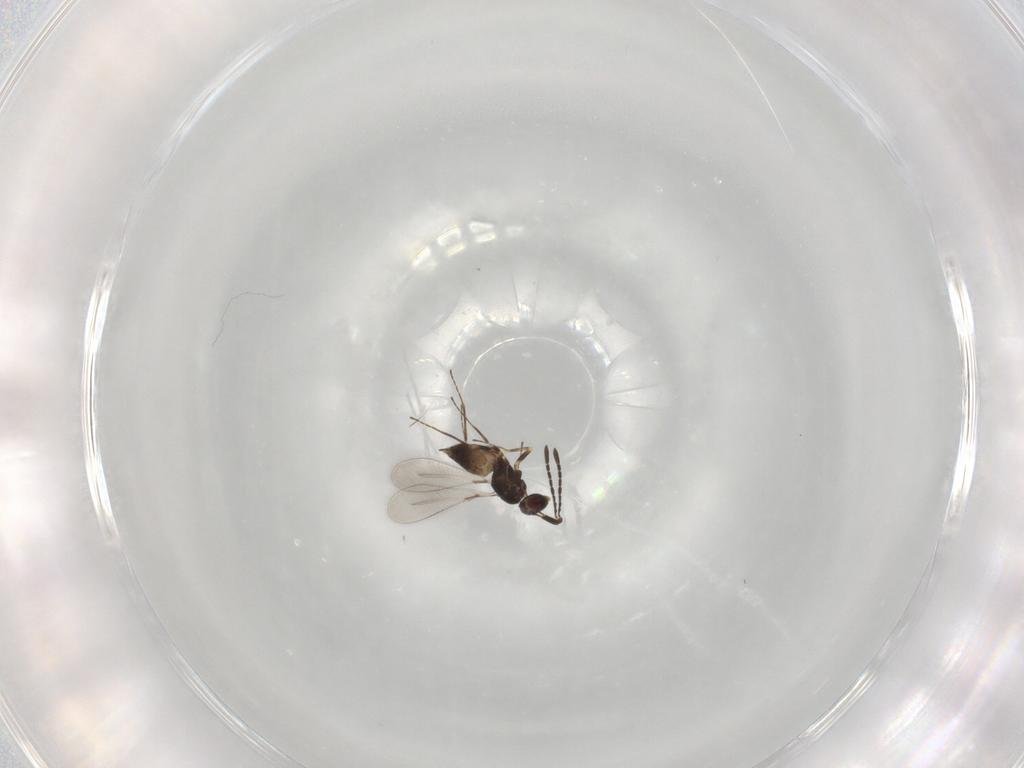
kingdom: Animalia
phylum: Arthropoda
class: Insecta
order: Hymenoptera
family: Mymaridae
